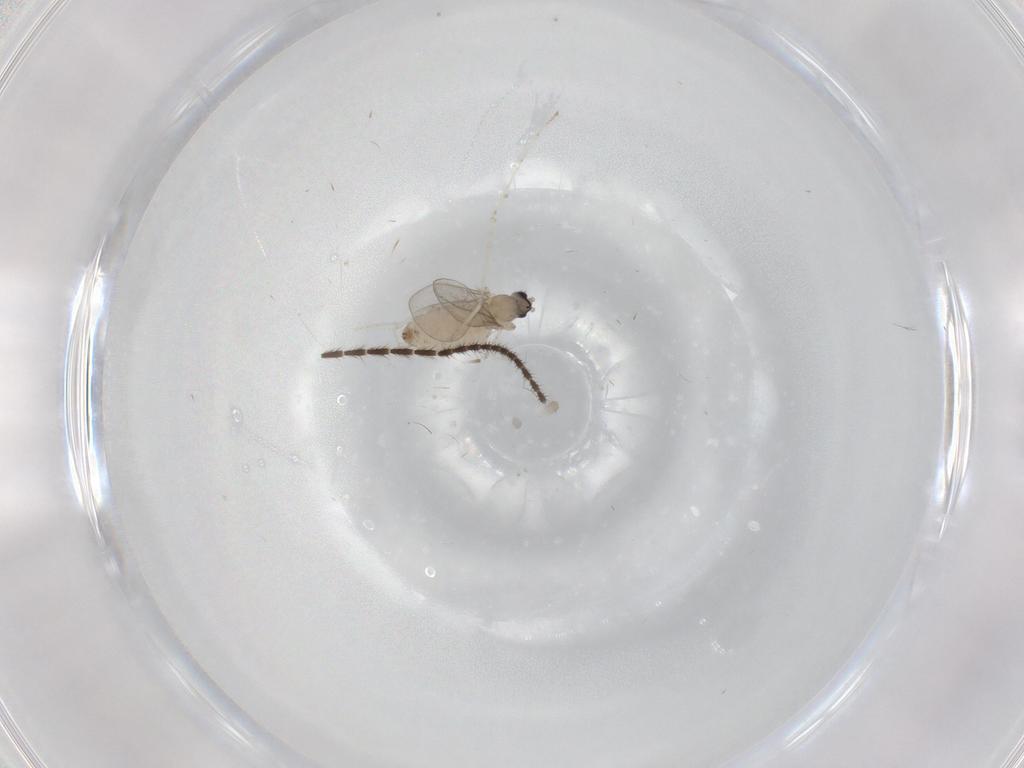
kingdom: Animalia
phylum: Arthropoda
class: Insecta
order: Diptera
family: Cecidomyiidae
